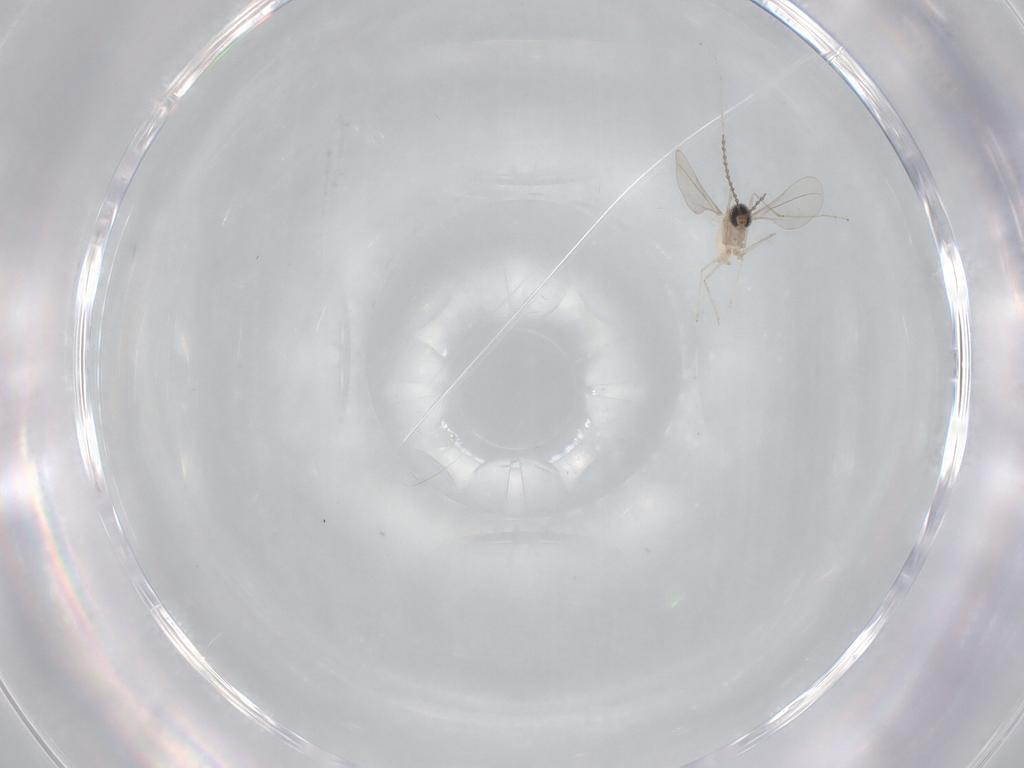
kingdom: Animalia
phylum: Arthropoda
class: Insecta
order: Diptera
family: Cecidomyiidae
